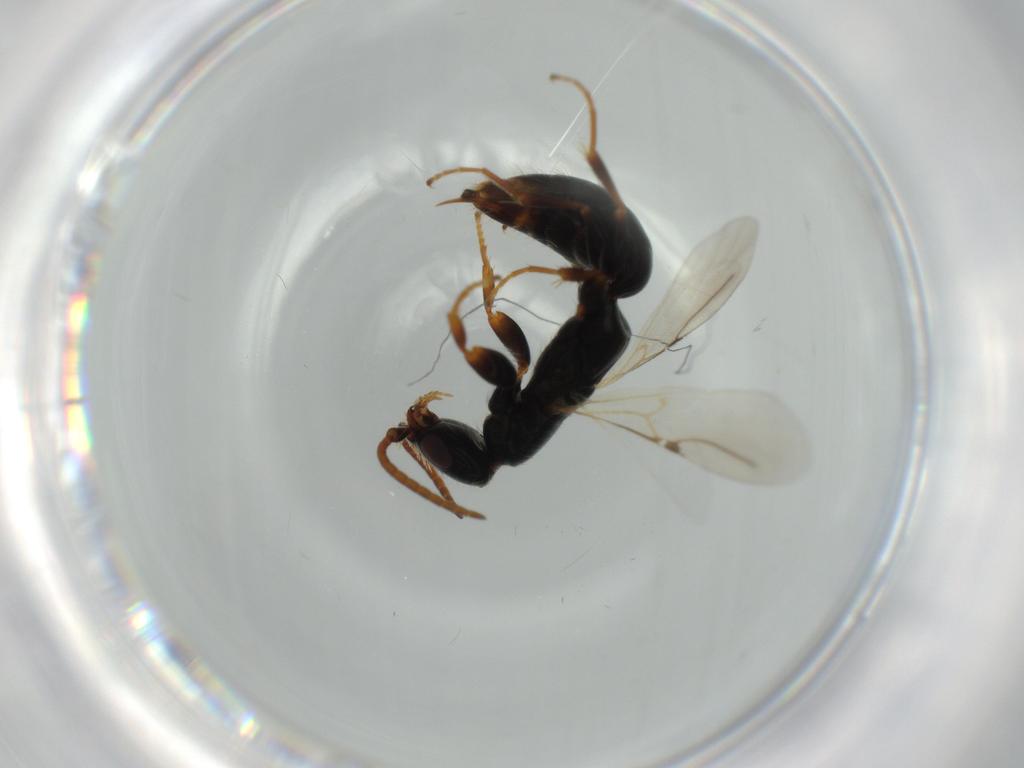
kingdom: Animalia
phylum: Arthropoda
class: Insecta
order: Hymenoptera
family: Bethylidae
